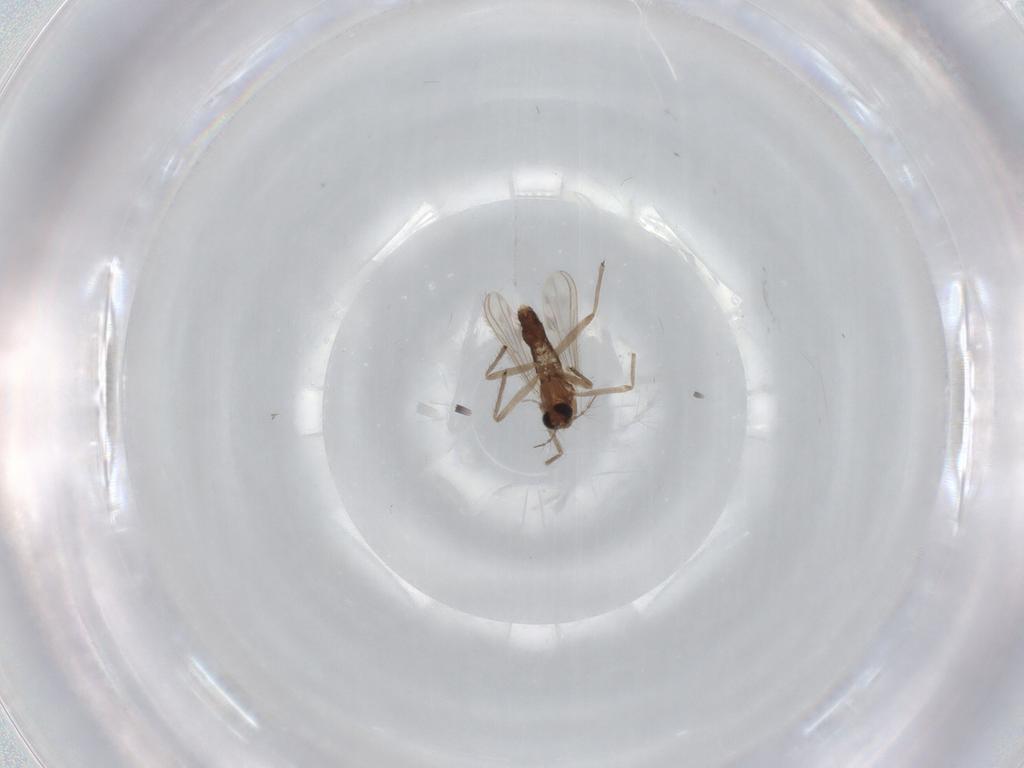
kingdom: Animalia
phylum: Arthropoda
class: Insecta
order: Diptera
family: Chironomidae
